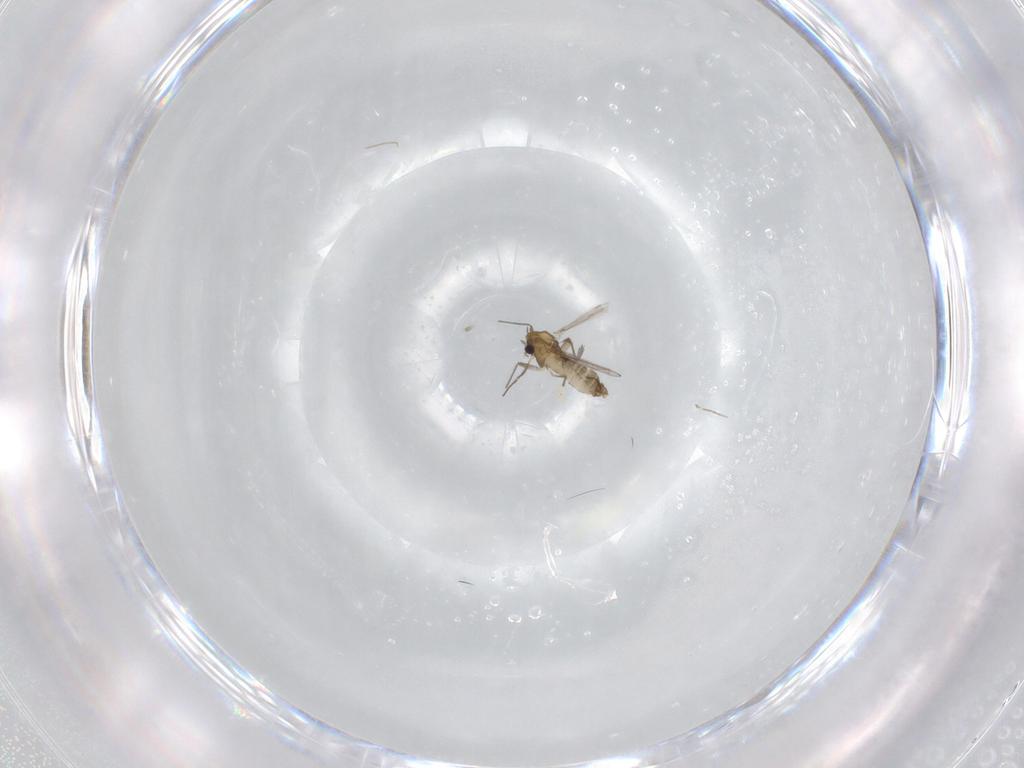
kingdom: Animalia
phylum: Arthropoda
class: Insecta
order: Diptera
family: Chironomidae
